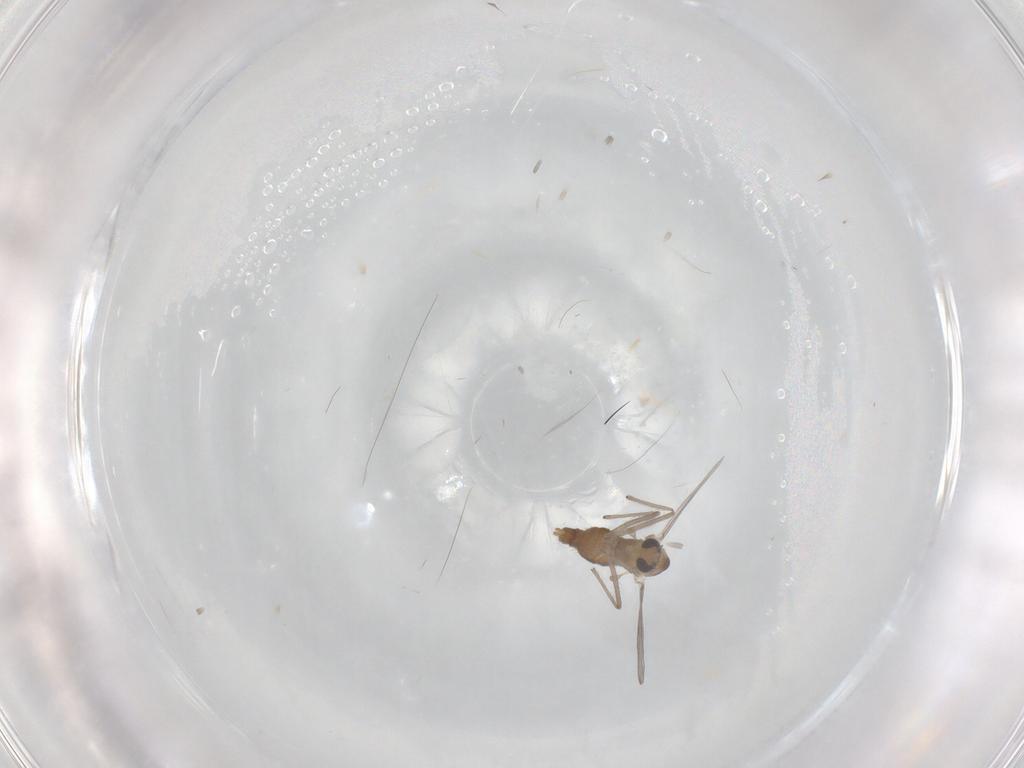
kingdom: Animalia
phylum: Arthropoda
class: Insecta
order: Diptera
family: Chironomidae
